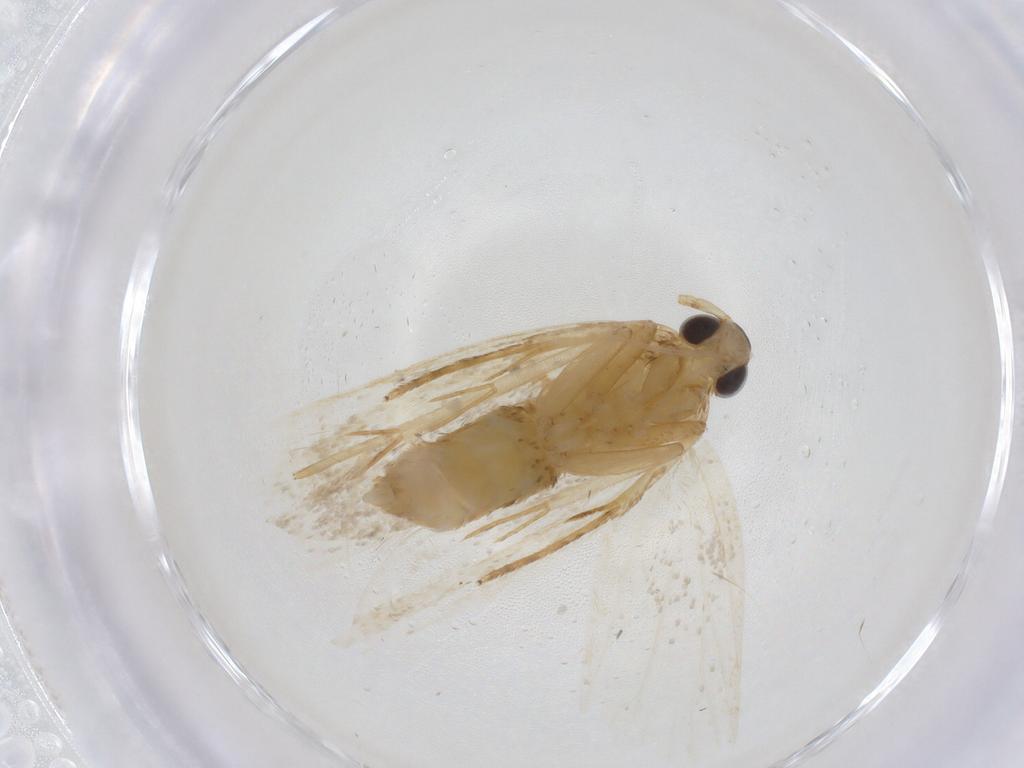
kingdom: Animalia
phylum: Arthropoda
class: Insecta
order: Lepidoptera
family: Lecithoceridae
